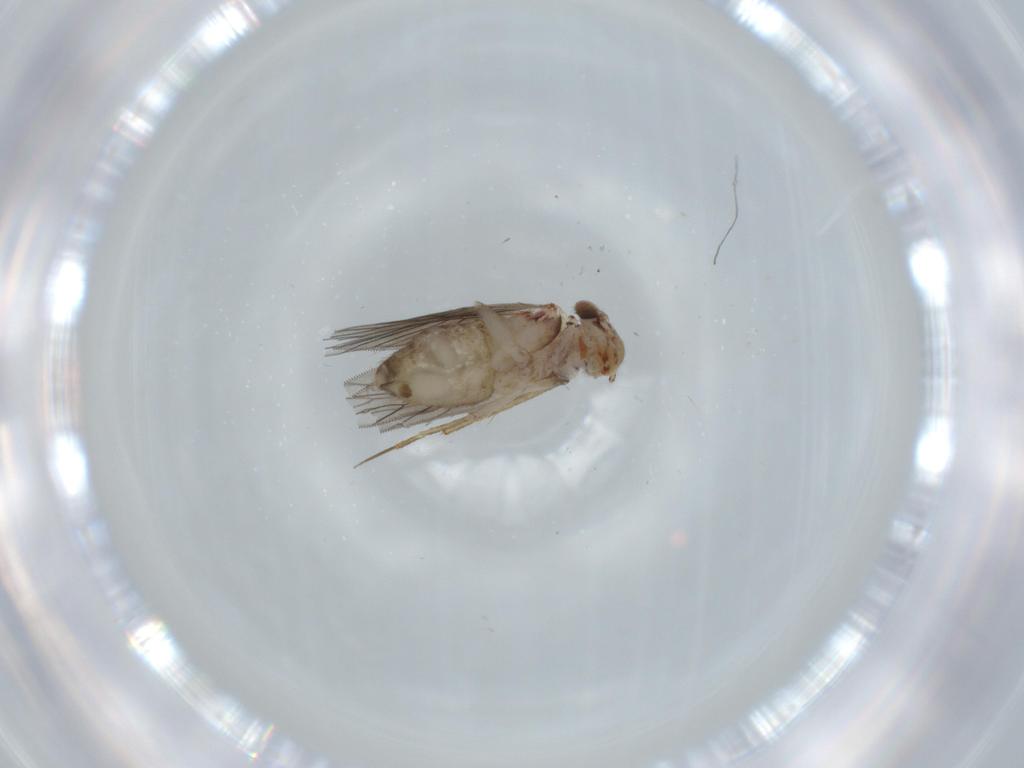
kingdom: Animalia
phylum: Arthropoda
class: Insecta
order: Psocodea
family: Lepidopsocidae
